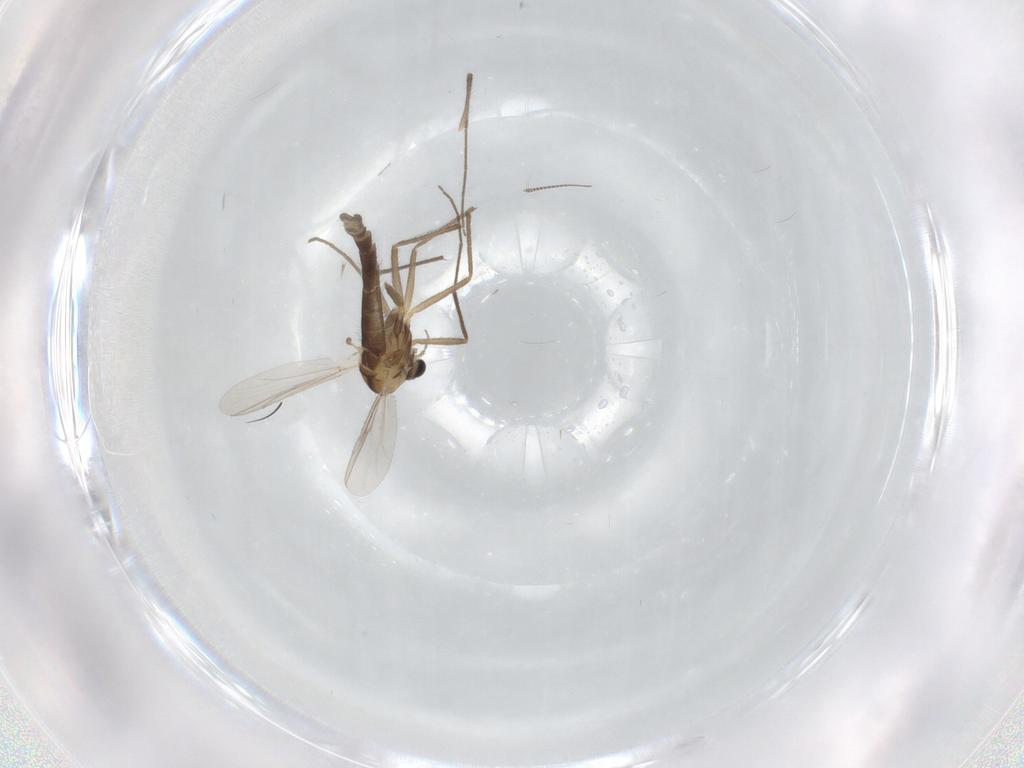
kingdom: Animalia
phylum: Arthropoda
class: Insecta
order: Diptera
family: Chironomidae
